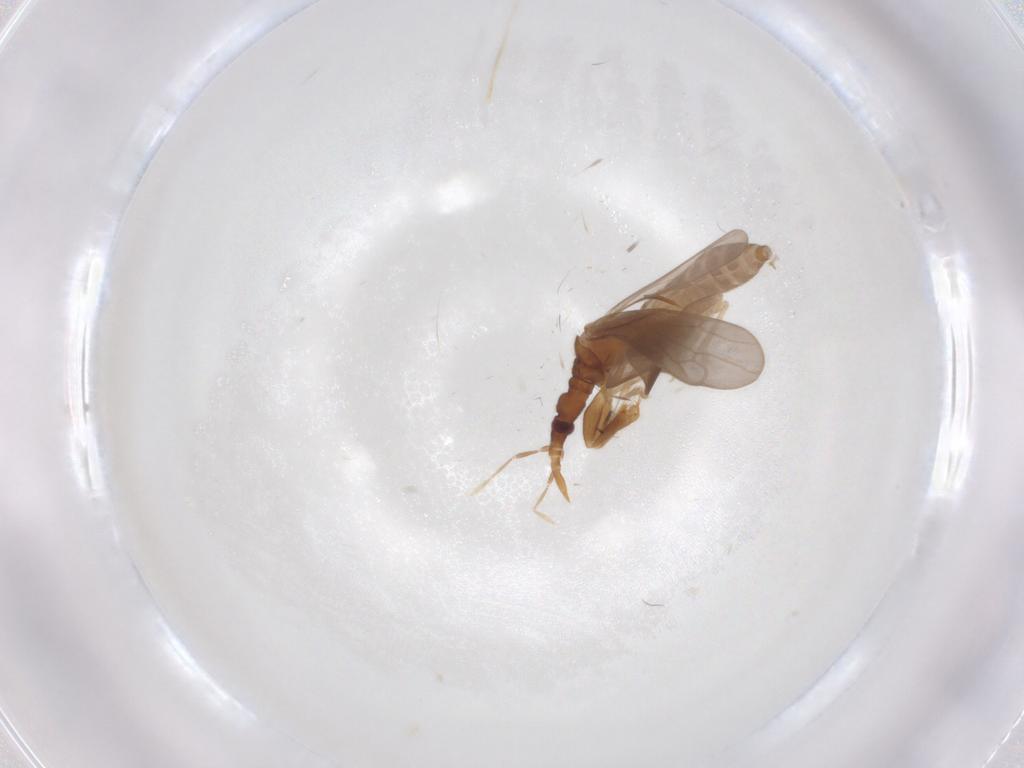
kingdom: Animalia
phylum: Arthropoda
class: Insecta
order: Hemiptera
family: Enicocephalidae
